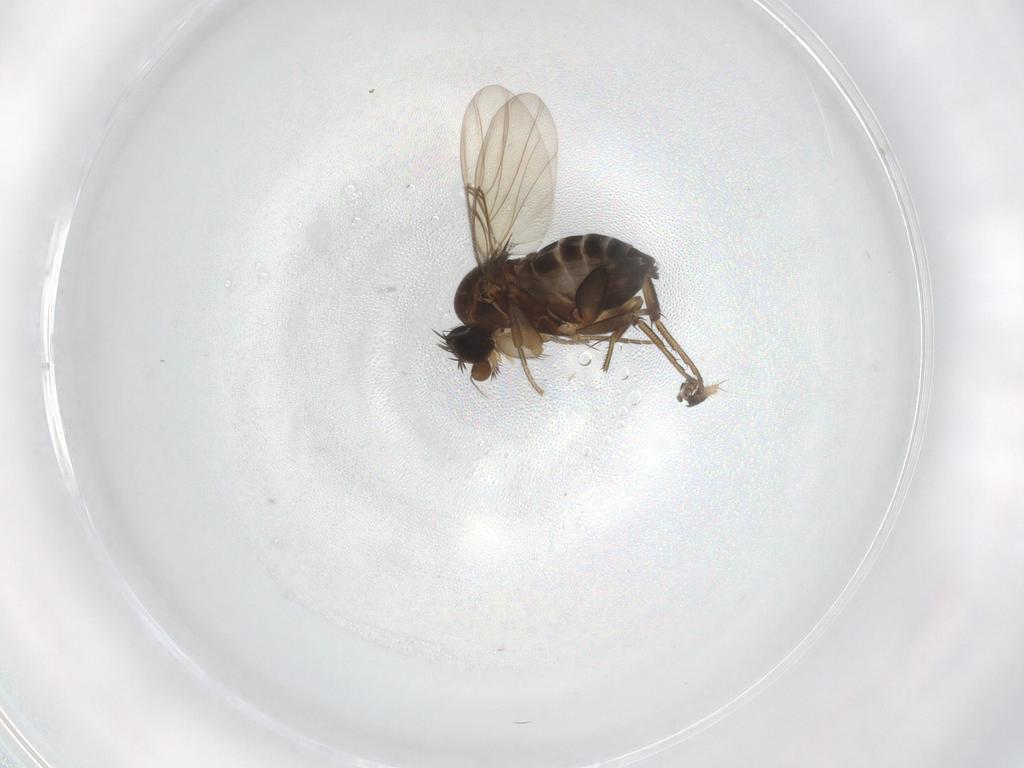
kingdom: Animalia
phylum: Arthropoda
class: Insecta
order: Diptera
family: Phoridae
